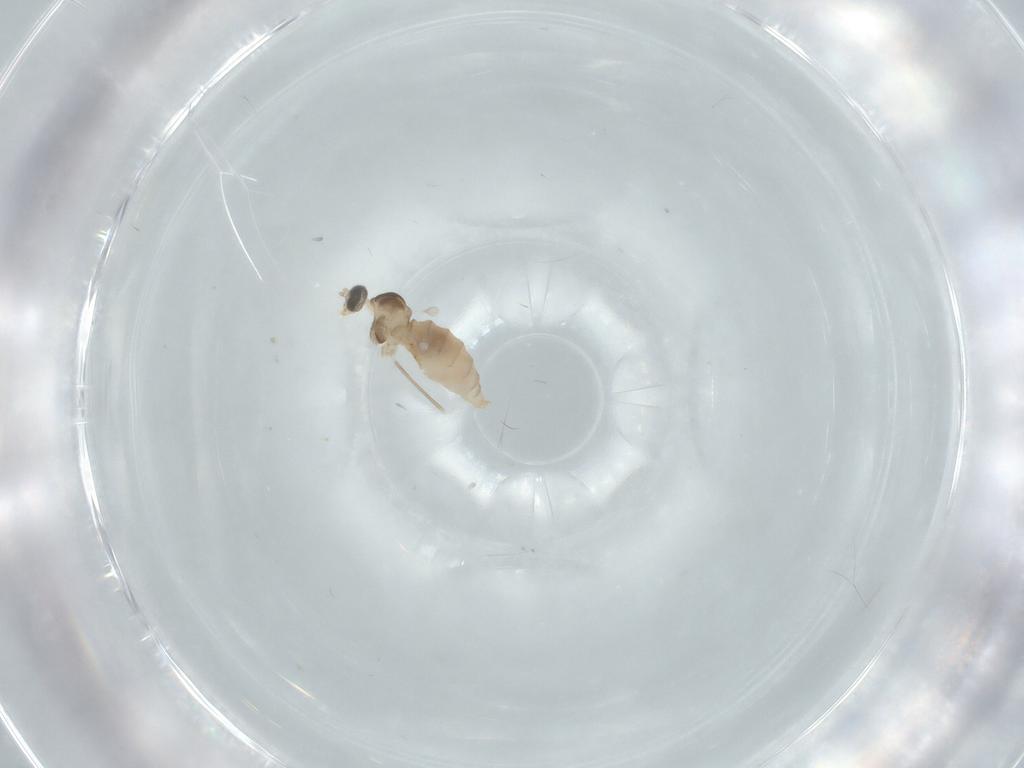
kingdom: Animalia
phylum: Arthropoda
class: Insecta
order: Diptera
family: Cecidomyiidae
